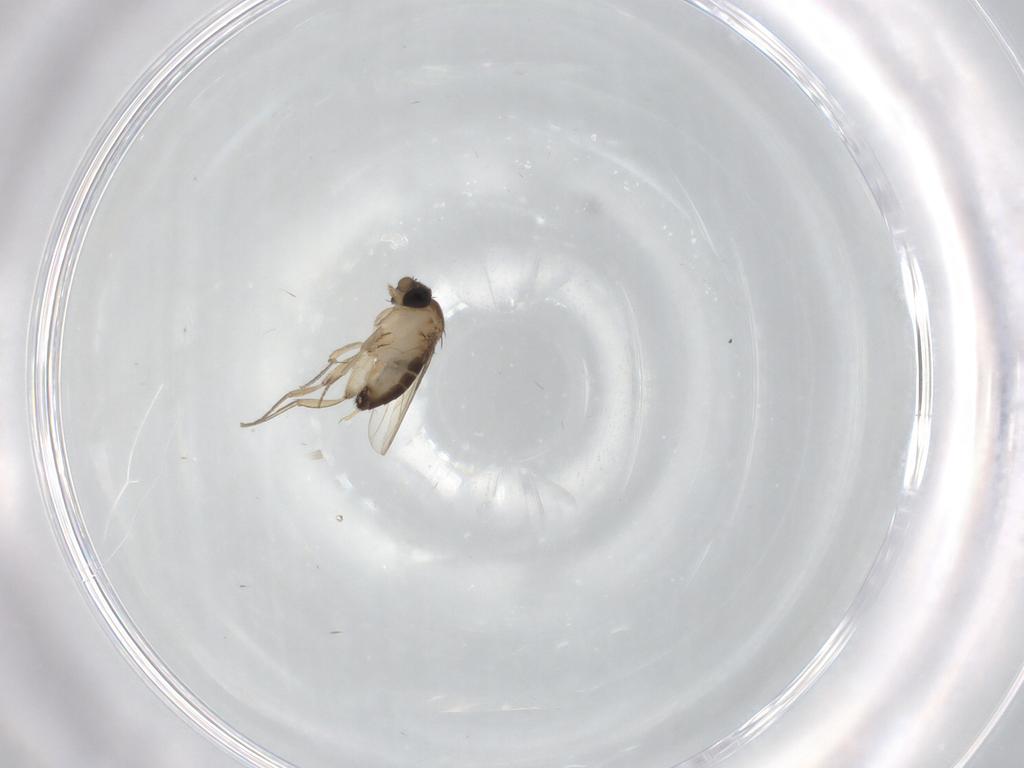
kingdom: Animalia
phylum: Arthropoda
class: Insecta
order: Diptera
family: Phoridae
